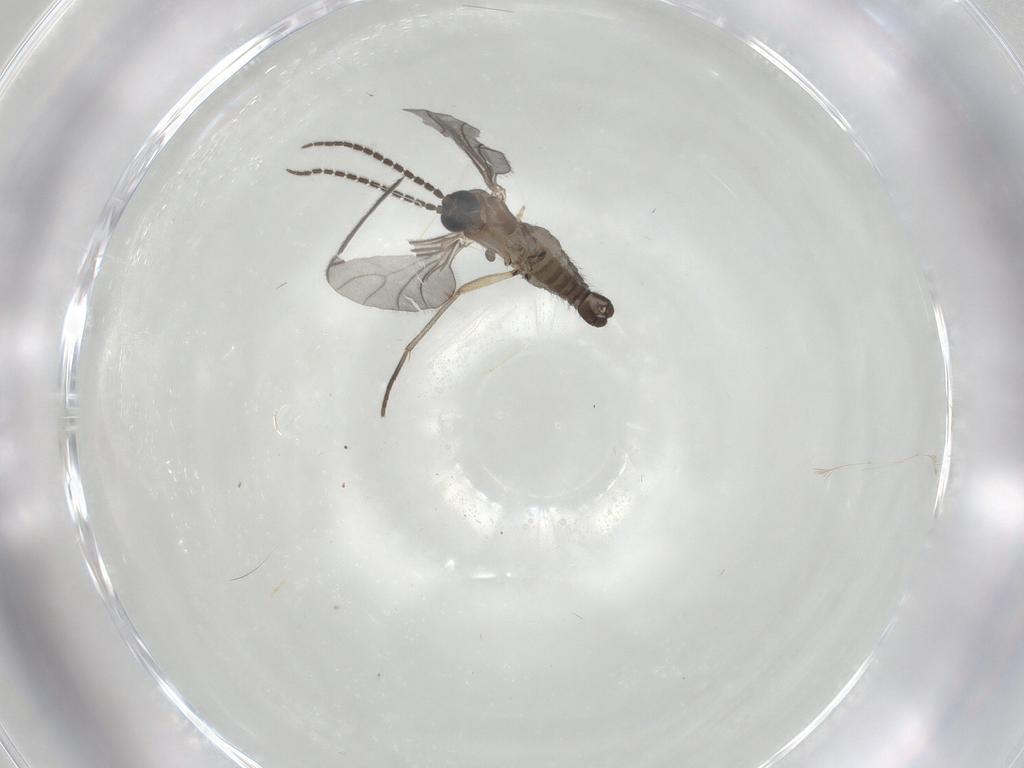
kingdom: Animalia
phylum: Arthropoda
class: Insecta
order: Diptera
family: Sciaridae
